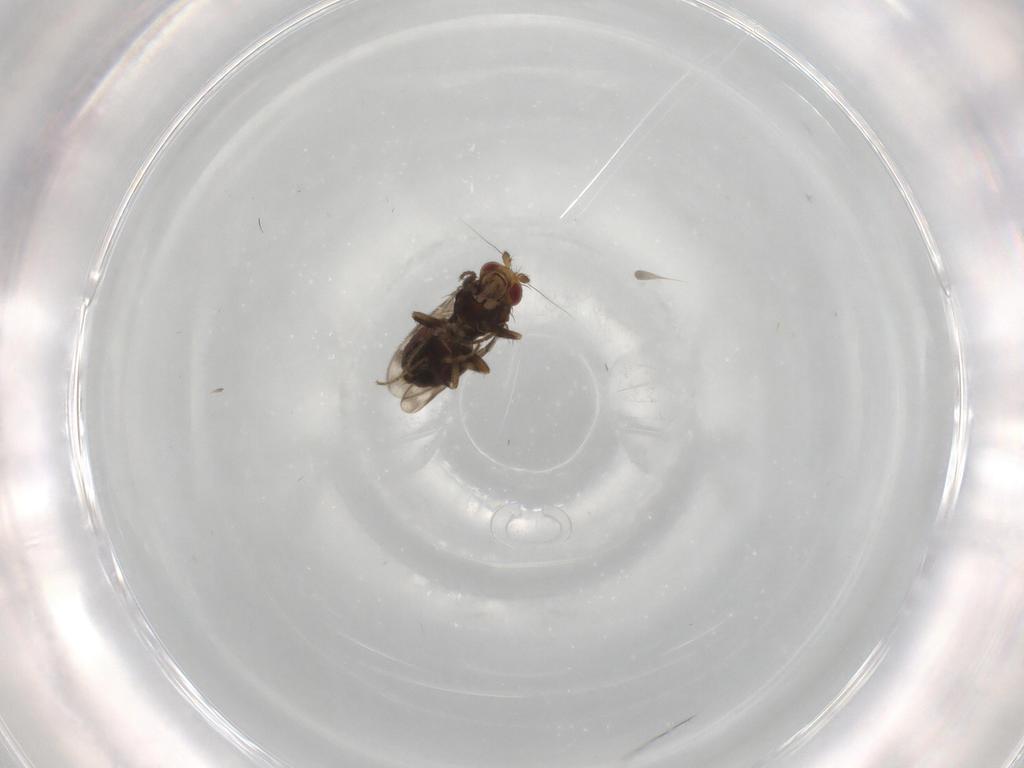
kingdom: Animalia
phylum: Arthropoda
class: Insecta
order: Diptera
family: Sphaeroceridae
